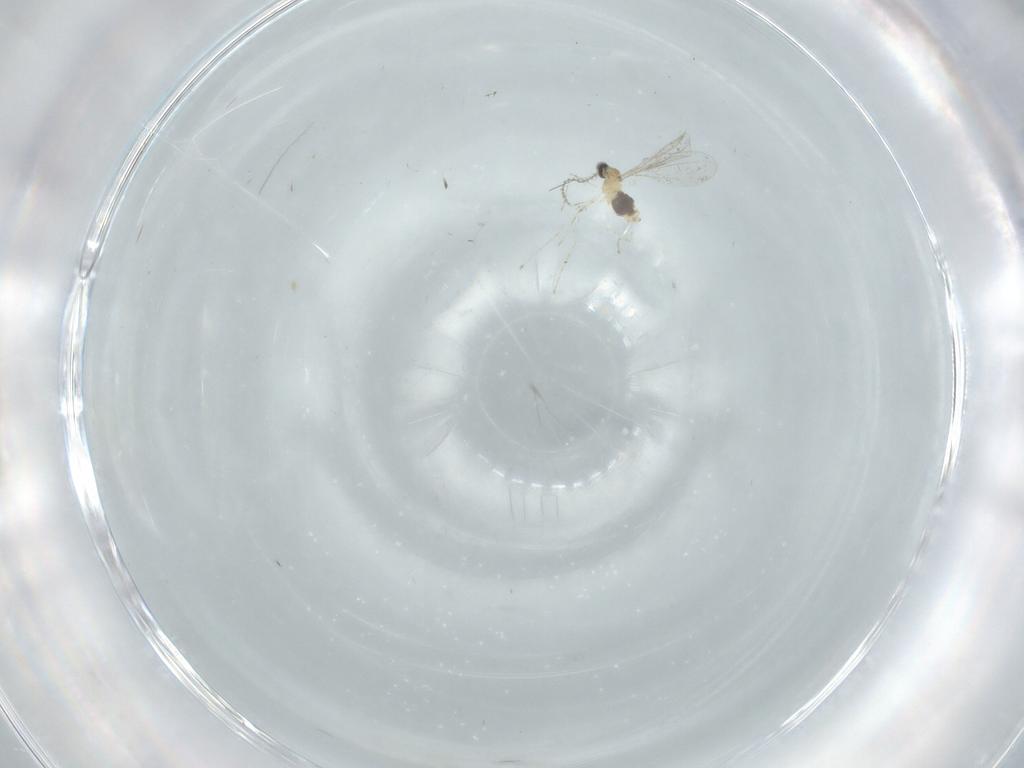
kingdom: Animalia
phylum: Arthropoda
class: Insecta
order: Diptera
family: Cecidomyiidae
